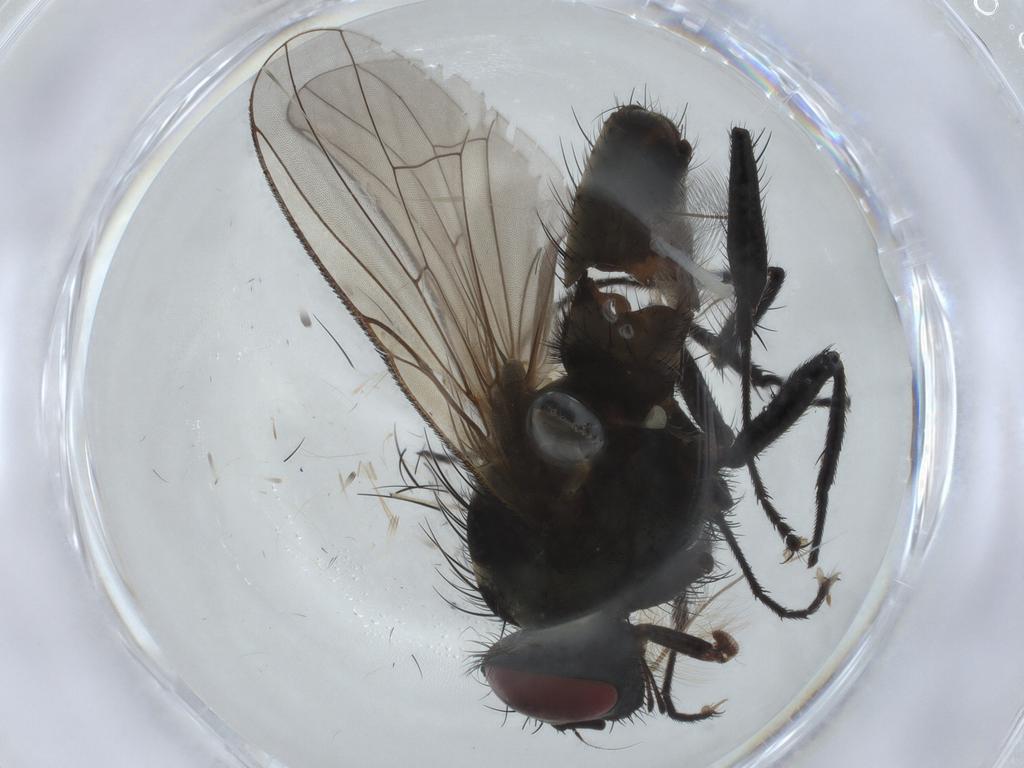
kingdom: Animalia
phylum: Arthropoda
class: Insecta
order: Diptera
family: Muscidae
